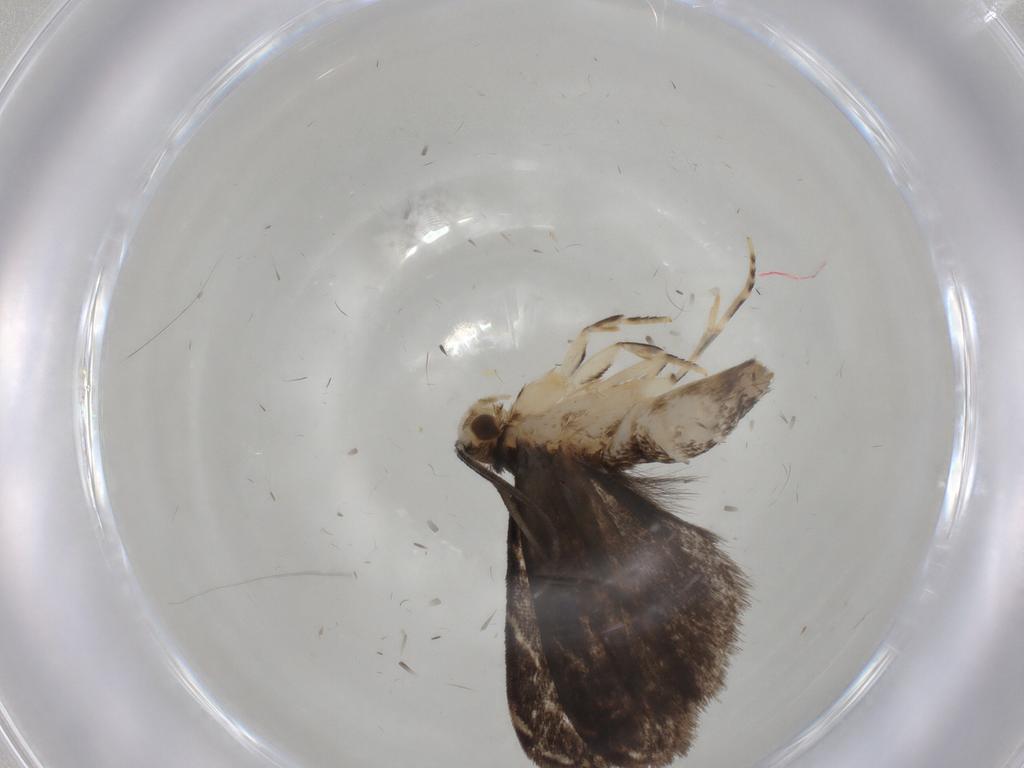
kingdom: Animalia
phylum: Arthropoda
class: Insecta
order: Lepidoptera
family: Dryadaulidae
